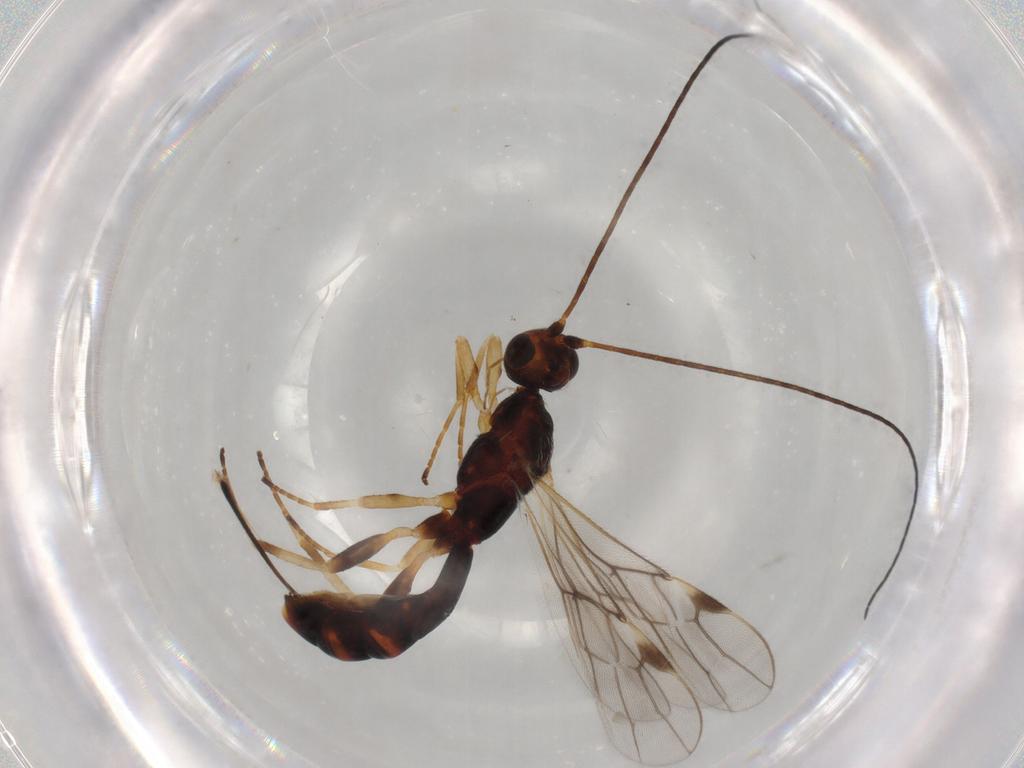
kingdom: Animalia
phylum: Arthropoda
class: Insecta
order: Hymenoptera
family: Braconidae
